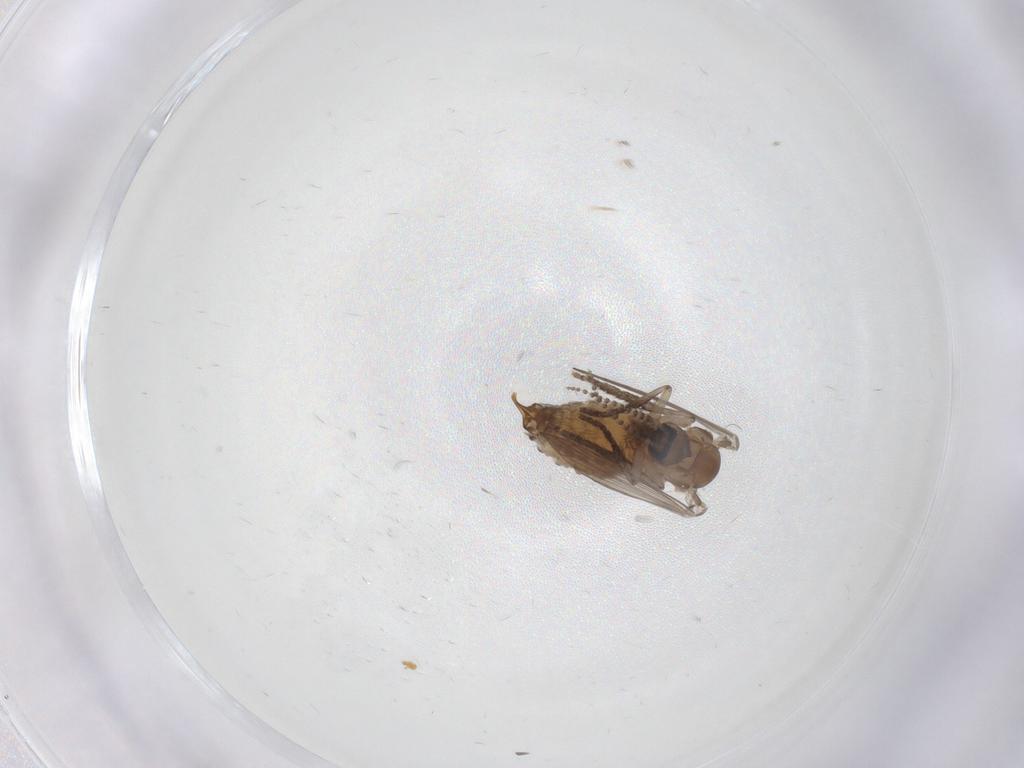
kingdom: Animalia
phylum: Arthropoda
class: Insecta
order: Diptera
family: Psychodidae
